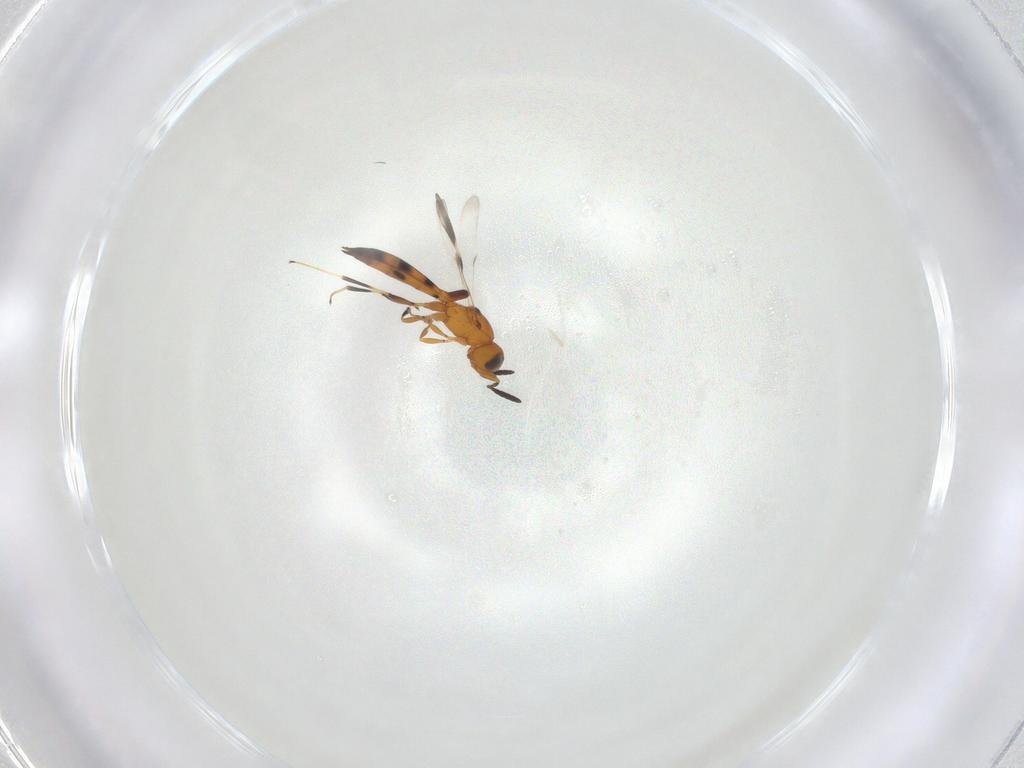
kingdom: Animalia
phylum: Arthropoda
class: Insecta
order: Hymenoptera
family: Scelionidae
